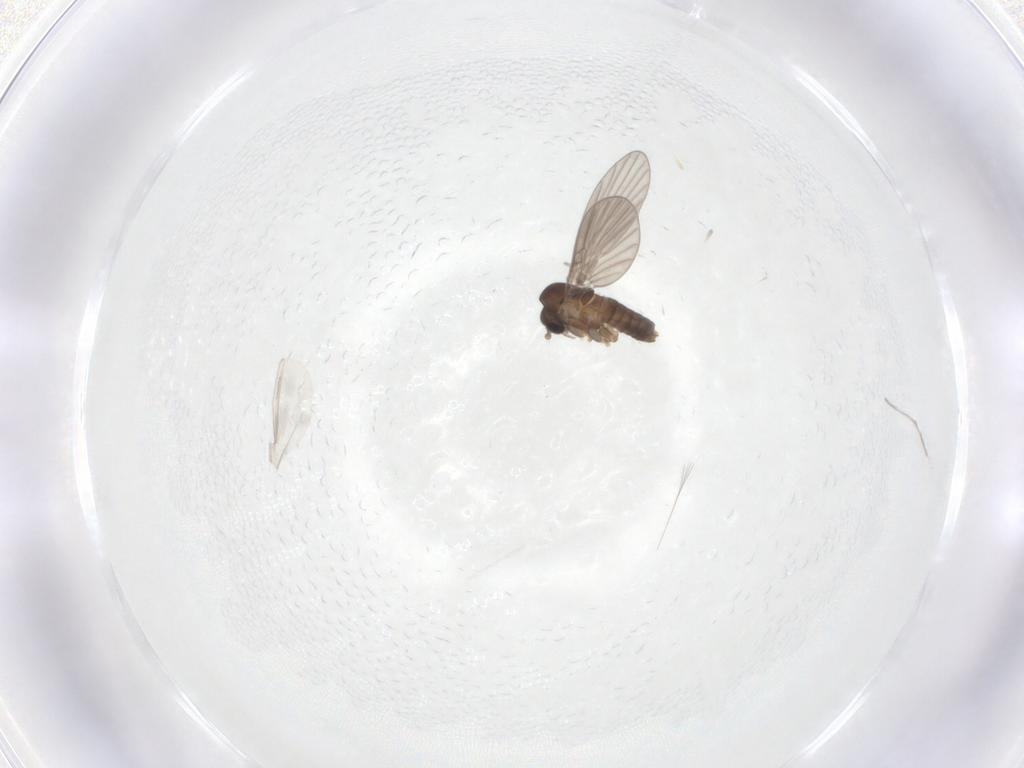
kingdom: Animalia
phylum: Arthropoda
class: Insecta
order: Diptera
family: Cecidomyiidae
